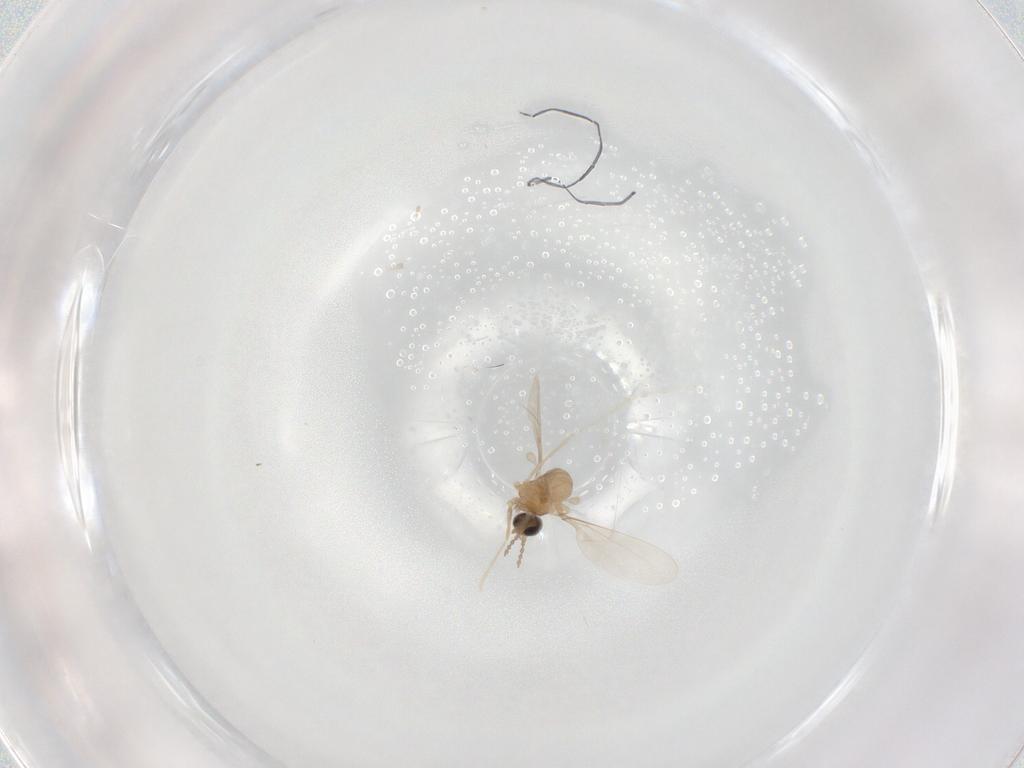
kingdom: Animalia
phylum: Arthropoda
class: Insecta
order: Diptera
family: Cecidomyiidae
